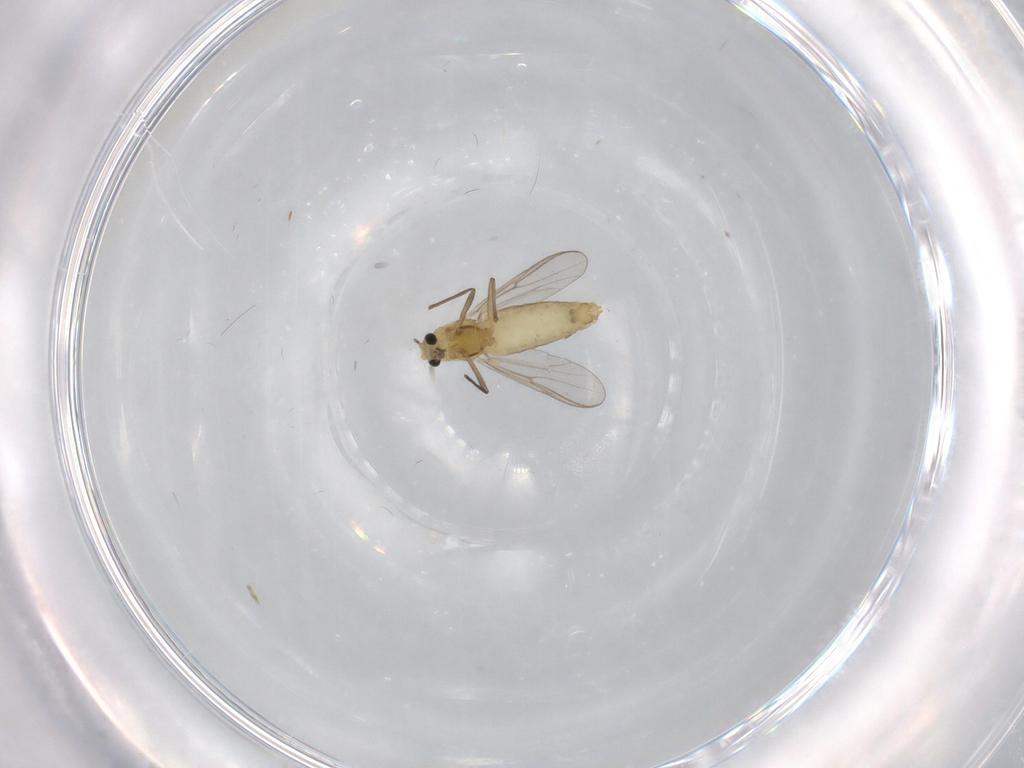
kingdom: Animalia
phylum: Arthropoda
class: Insecta
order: Diptera
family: Chironomidae
